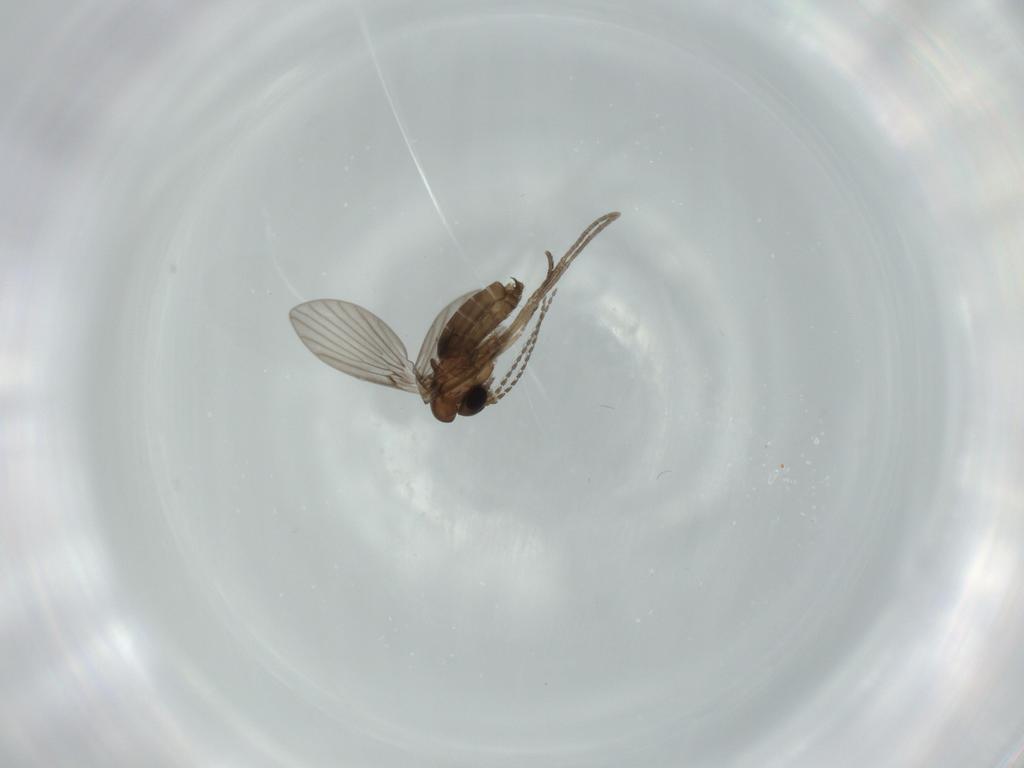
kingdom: Animalia
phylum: Arthropoda
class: Insecta
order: Diptera
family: Psychodidae
